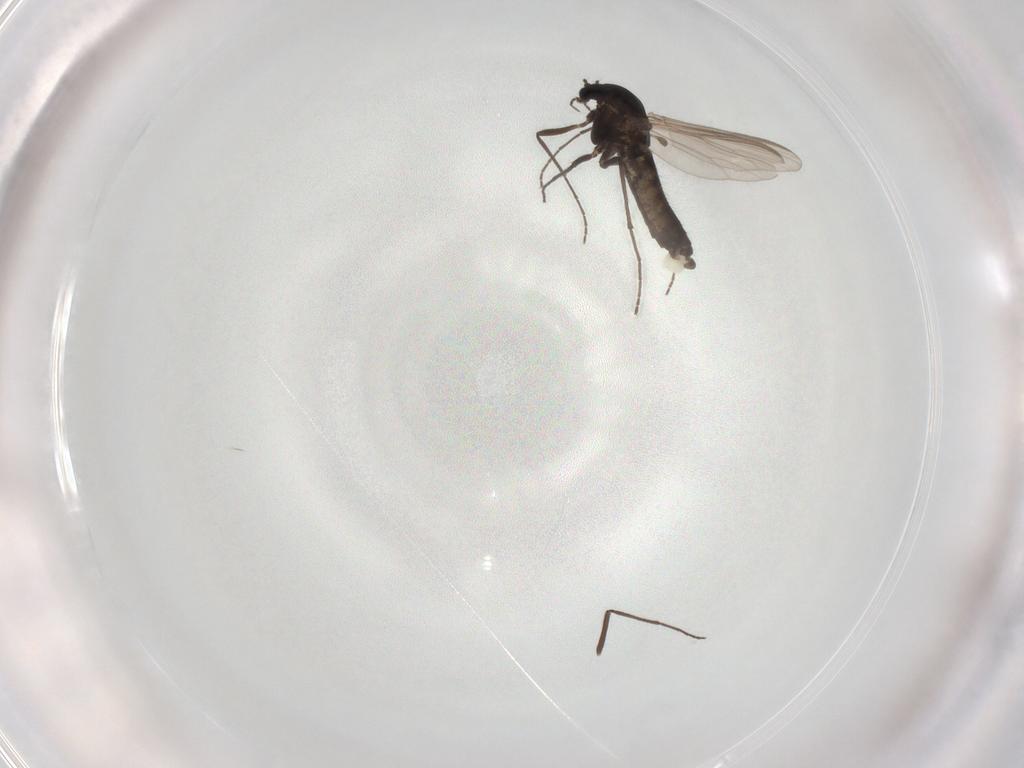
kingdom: Animalia
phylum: Arthropoda
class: Insecta
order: Diptera
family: Chironomidae
